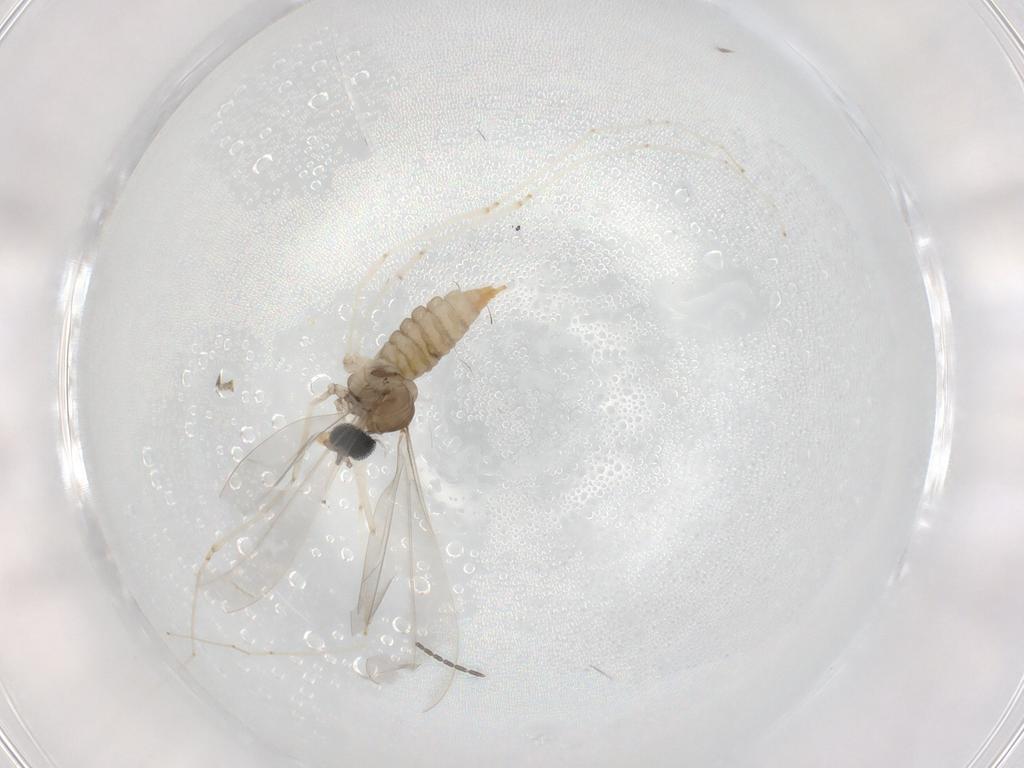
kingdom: Animalia
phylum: Arthropoda
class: Insecta
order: Diptera
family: Cecidomyiidae
